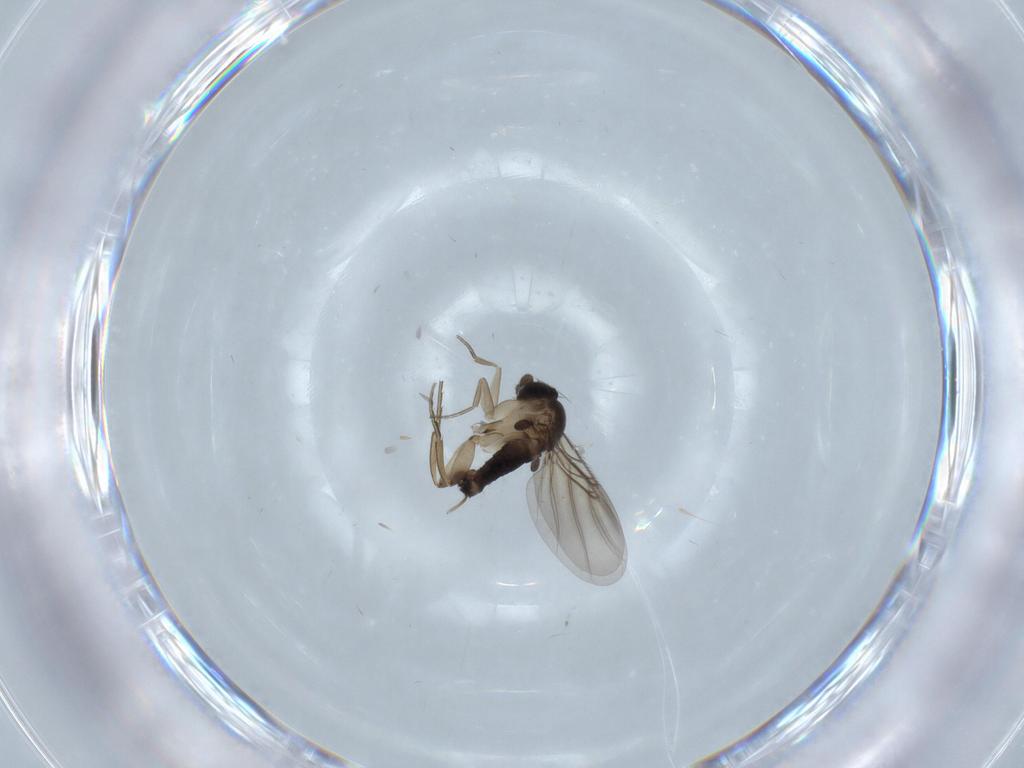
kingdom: Animalia
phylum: Arthropoda
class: Insecta
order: Diptera
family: Phoridae
